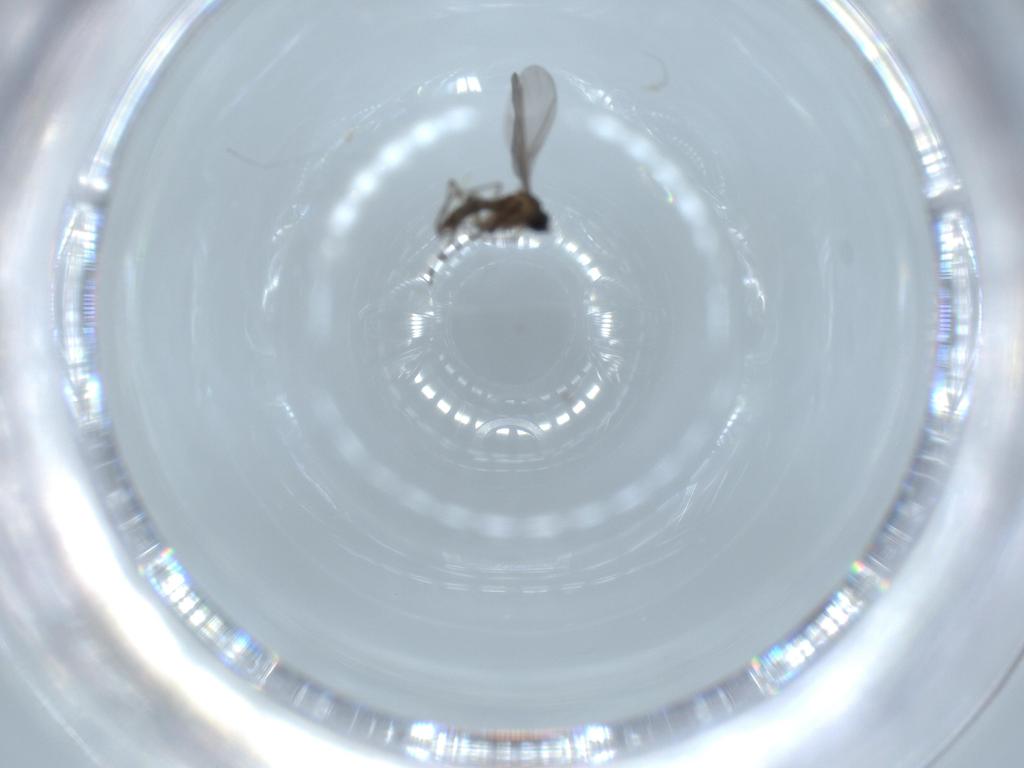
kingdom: Animalia
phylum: Arthropoda
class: Insecta
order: Diptera
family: Sciaridae
